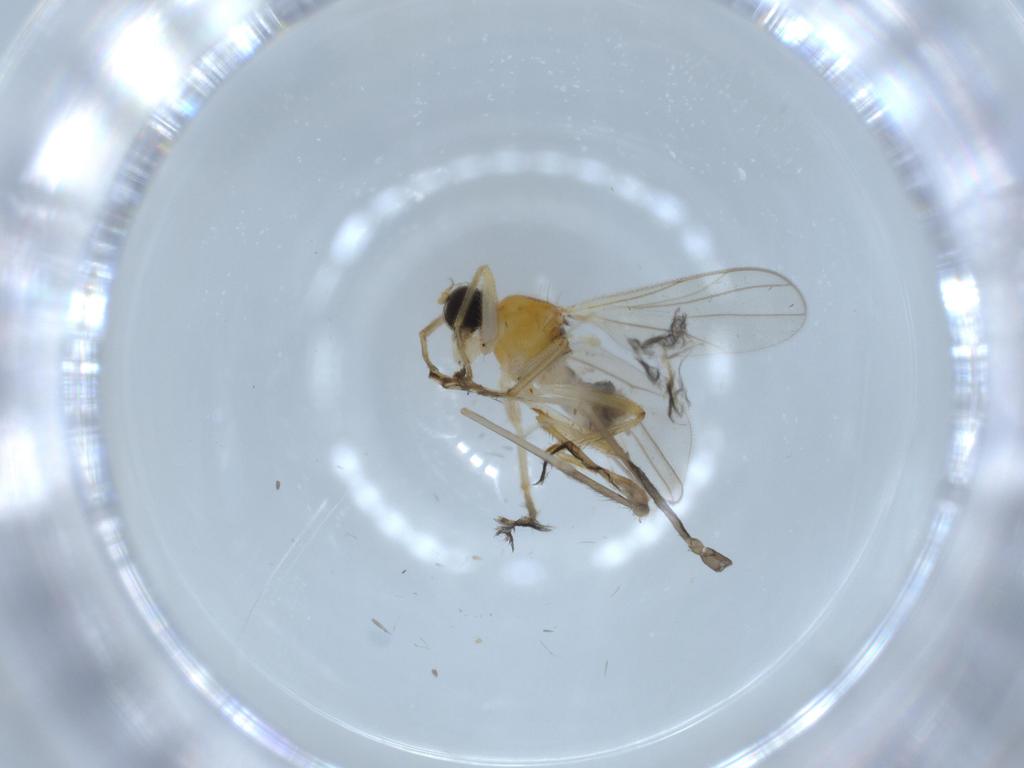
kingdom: Animalia
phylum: Arthropoda
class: Insecta
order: Diptera
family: Hybotidae
